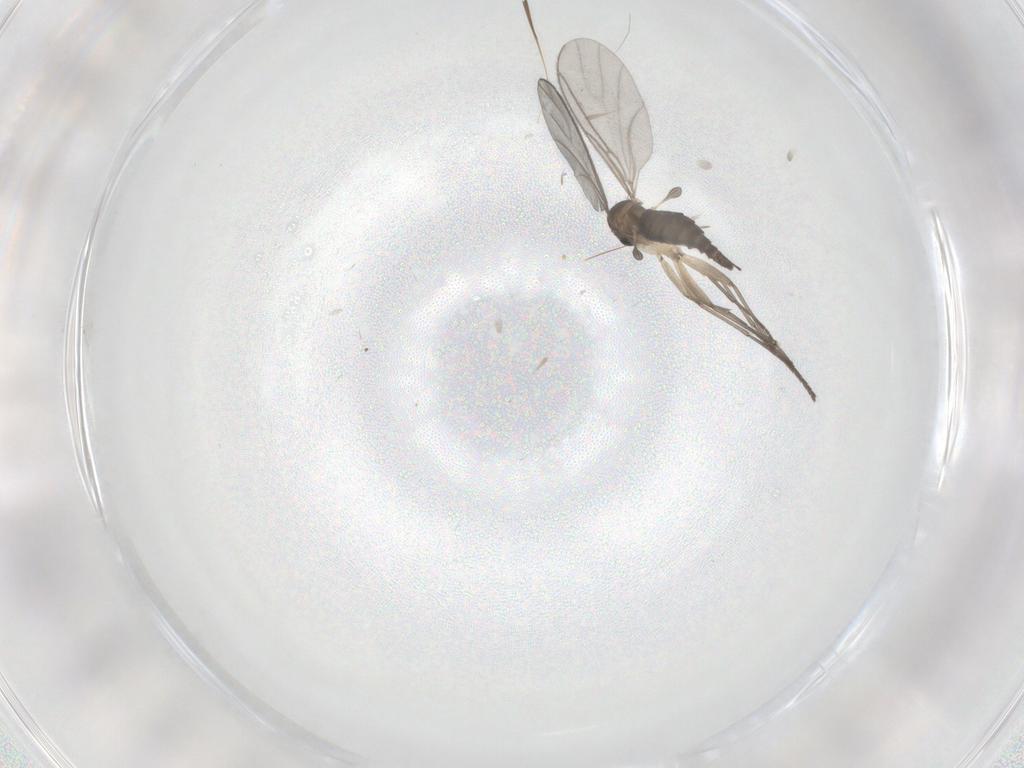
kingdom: Animalia
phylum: Arthropoda
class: Insecta
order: Diptera
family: Sciaridae
